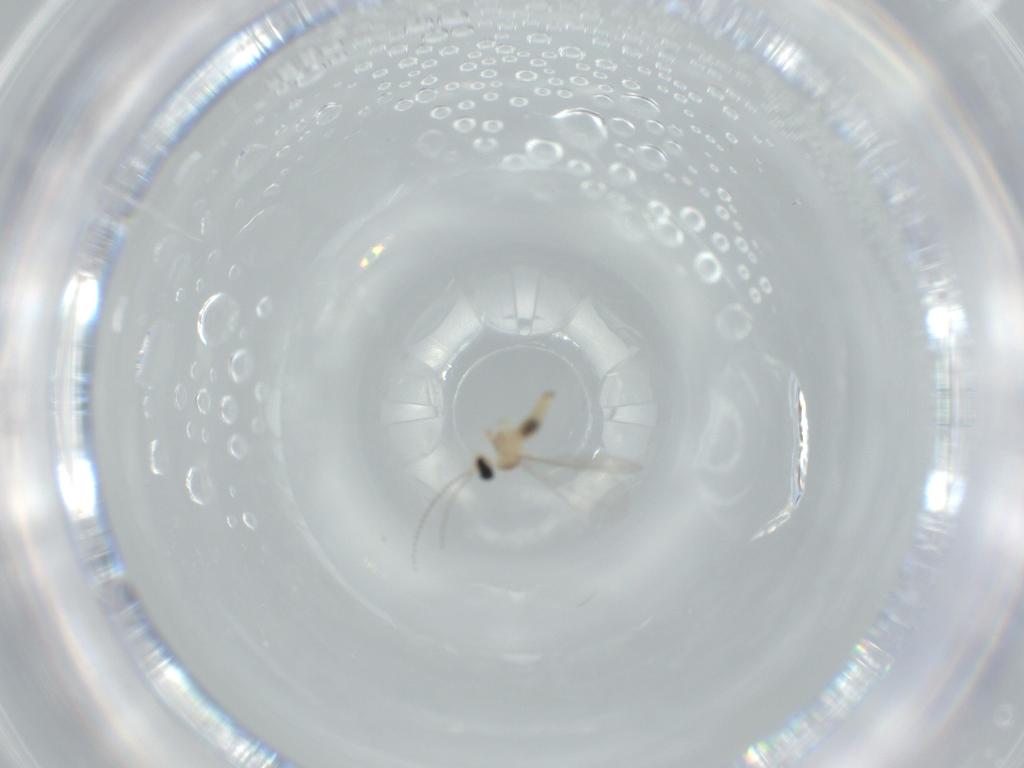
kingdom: Animalia
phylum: Arthropoda
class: Insecta
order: Diptera
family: Cecidomyiidae
